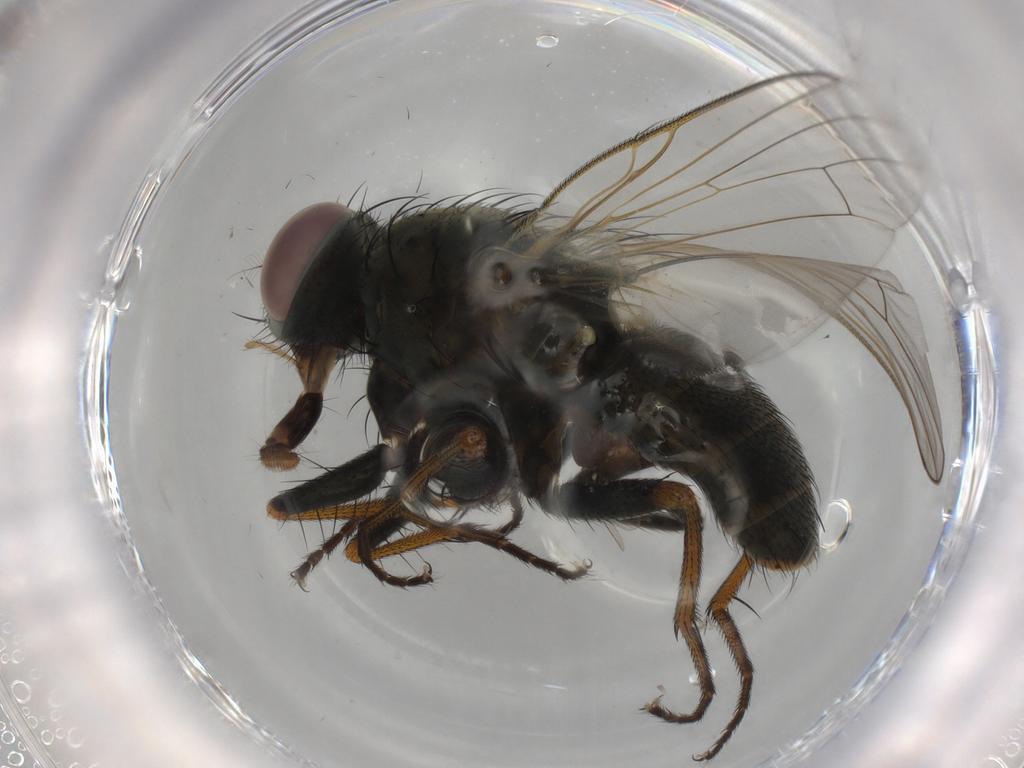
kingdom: Animalia
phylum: Arthropoda
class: Insecta
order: Diptera
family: Muscidae
